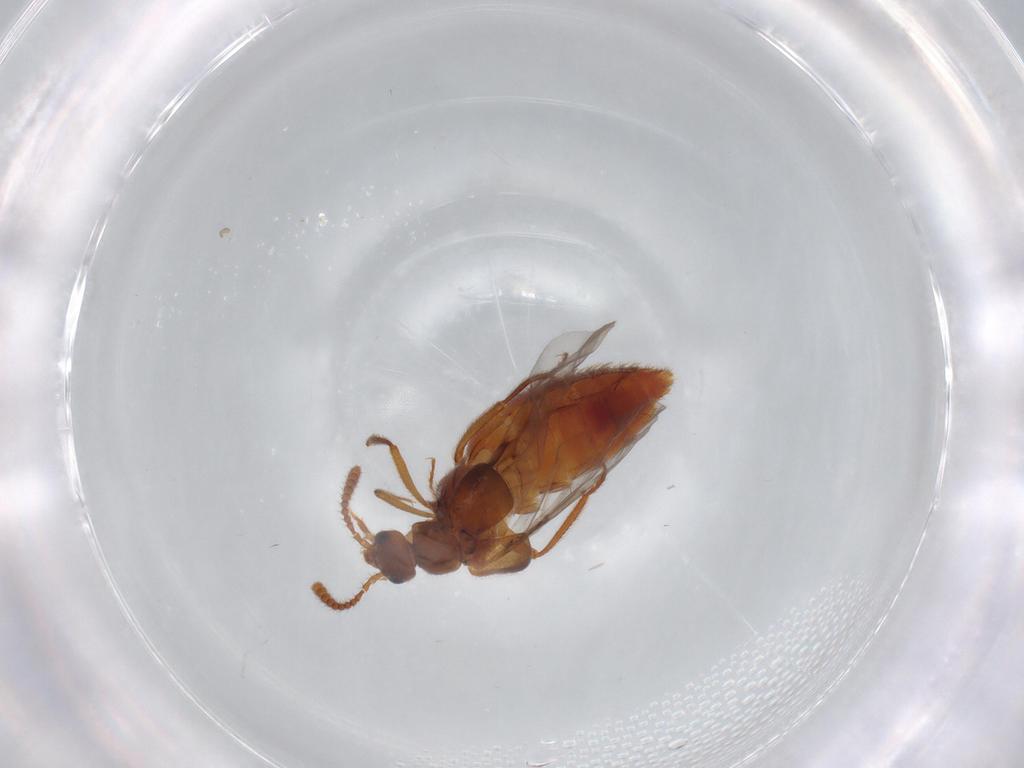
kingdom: Animalia
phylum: Arthropoda
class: Insecta
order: Coleoptera
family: Staphylinidae
